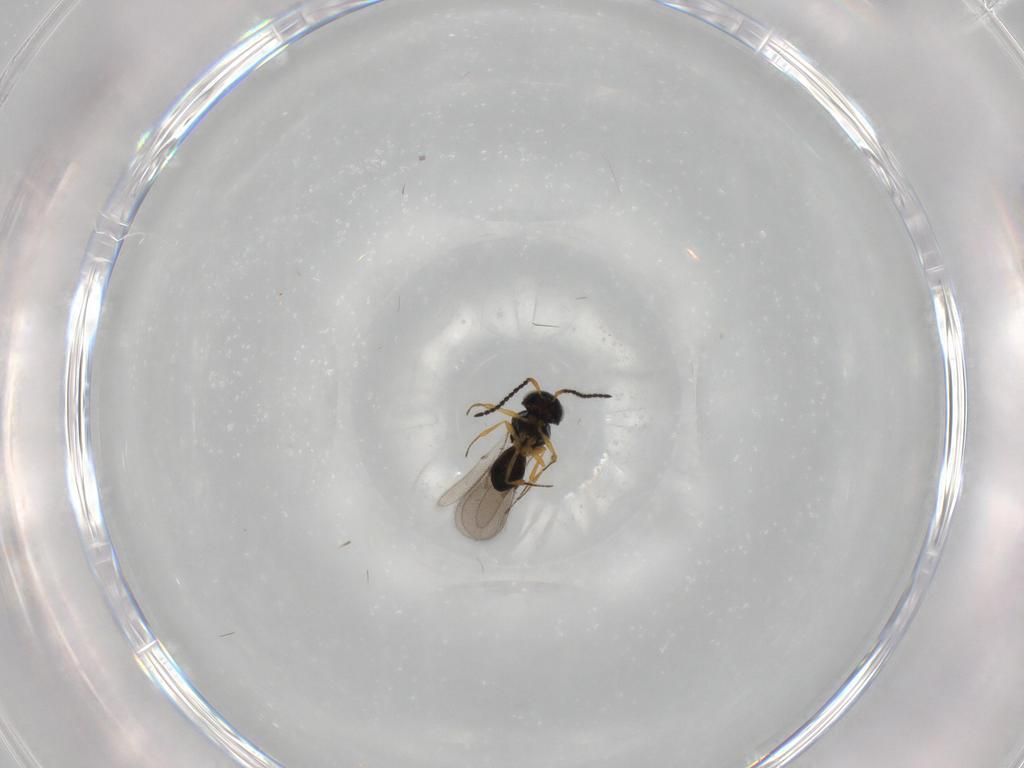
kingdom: Animalia
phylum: Arthropoda
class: Insecta
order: Hymenoptera
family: Scelionidae
